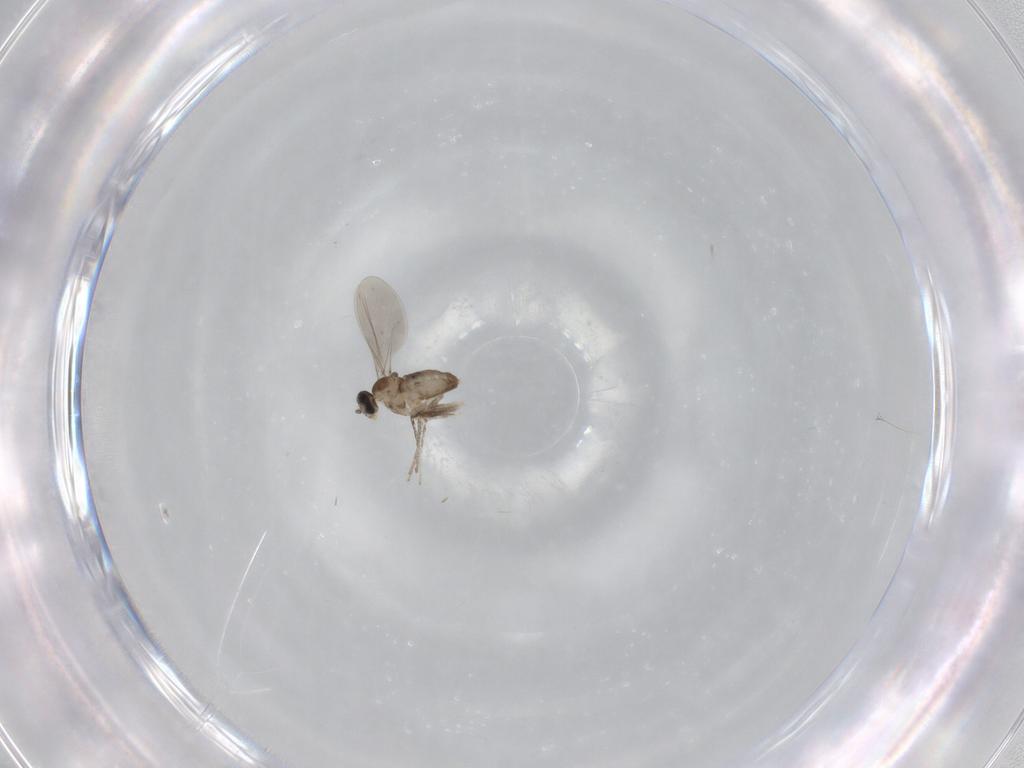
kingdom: Animalia
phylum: Arthropoda
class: Insecta
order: Diptera
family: Cecidomyiidae
